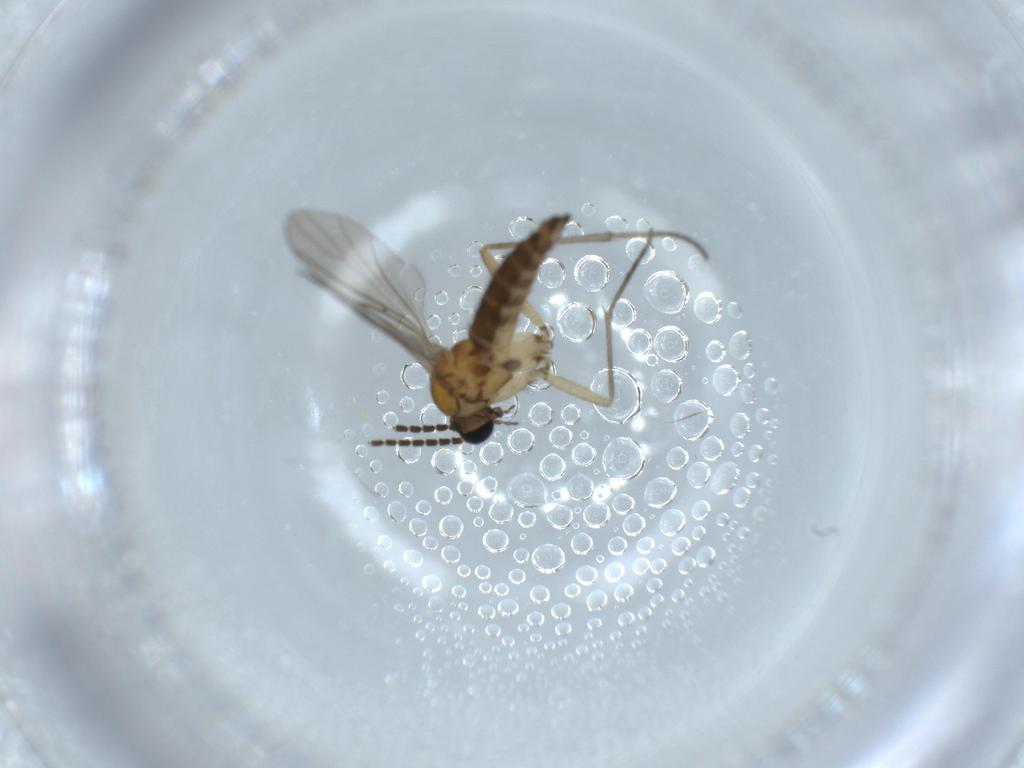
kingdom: Animalia
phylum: Arthropoda
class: Insecta
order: Diptera
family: Sciaridae
